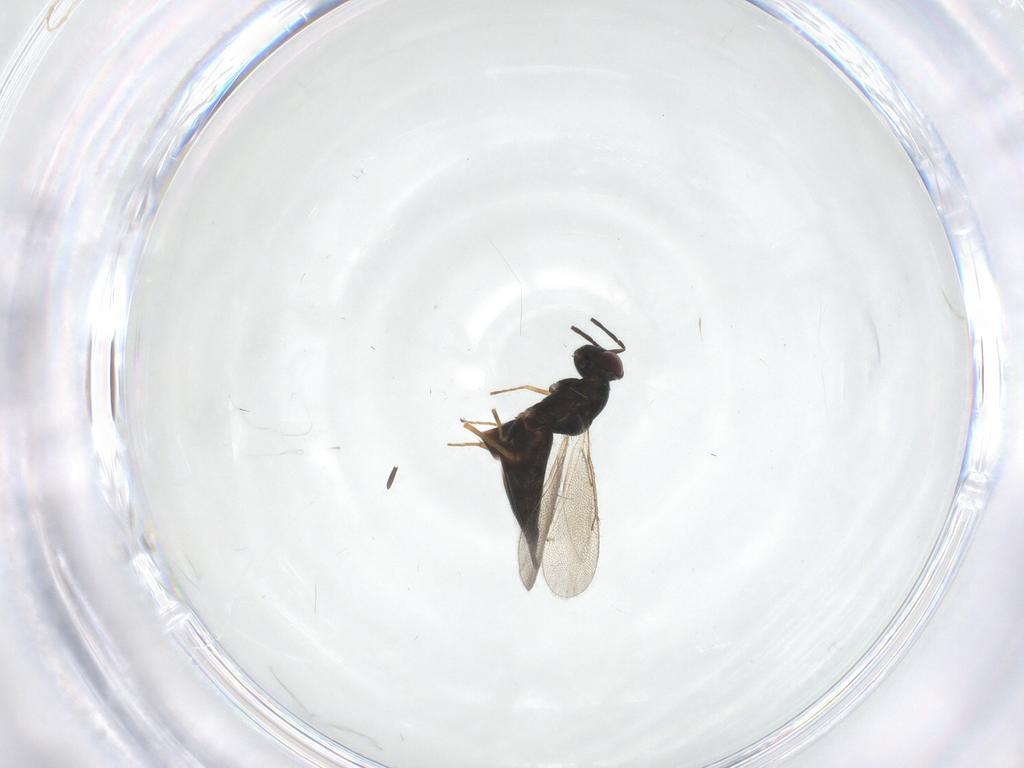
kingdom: Animalia
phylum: Arthropoda
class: Insecta
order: Hymenoptera
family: Eulophidae
